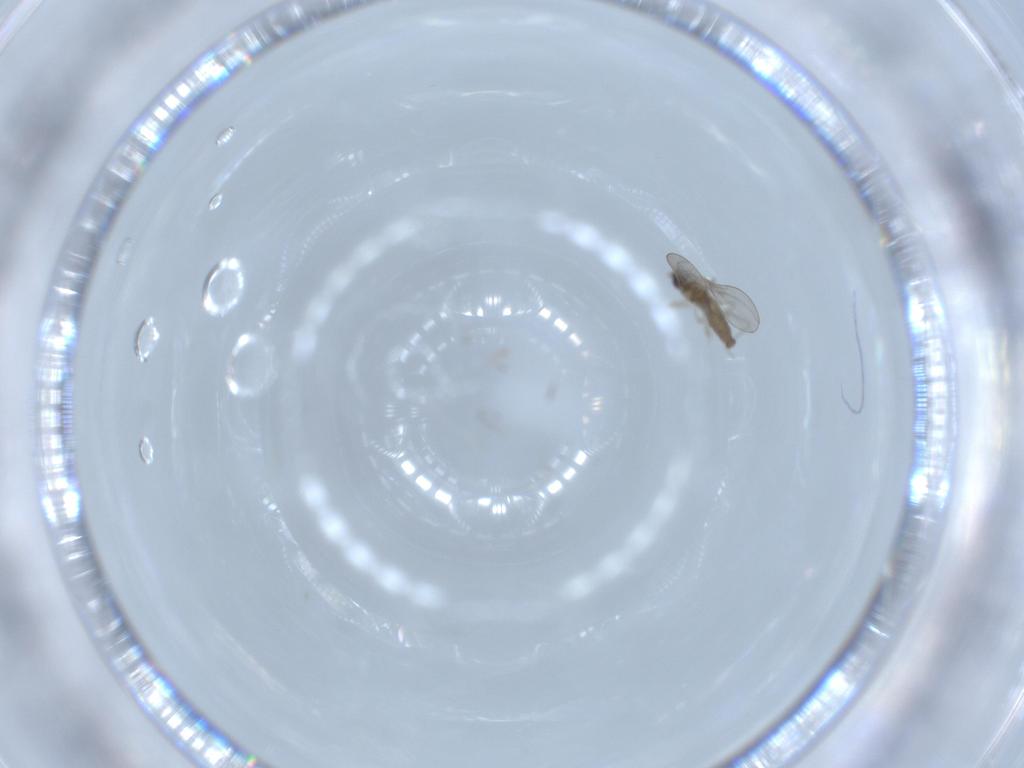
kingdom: Animalia
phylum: Arthropoda
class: Insecta
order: Diptera
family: Cecidomyiidae
